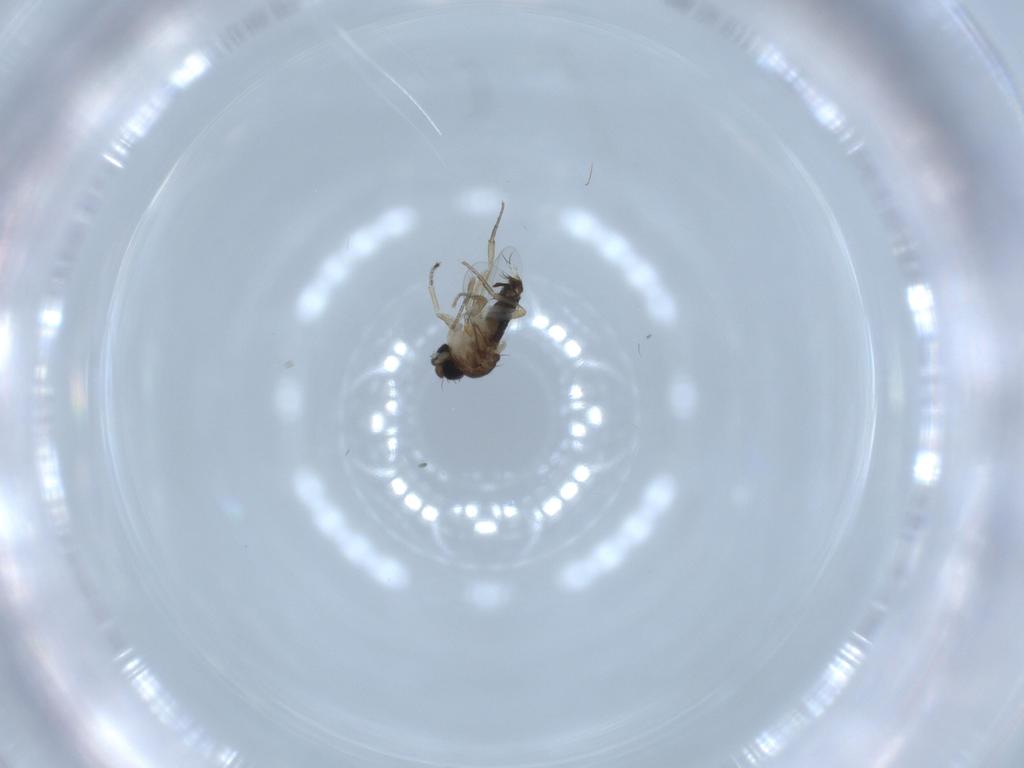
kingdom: Animalia
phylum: Arthropoda
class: Insecta
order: Diptera
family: Phoridae
